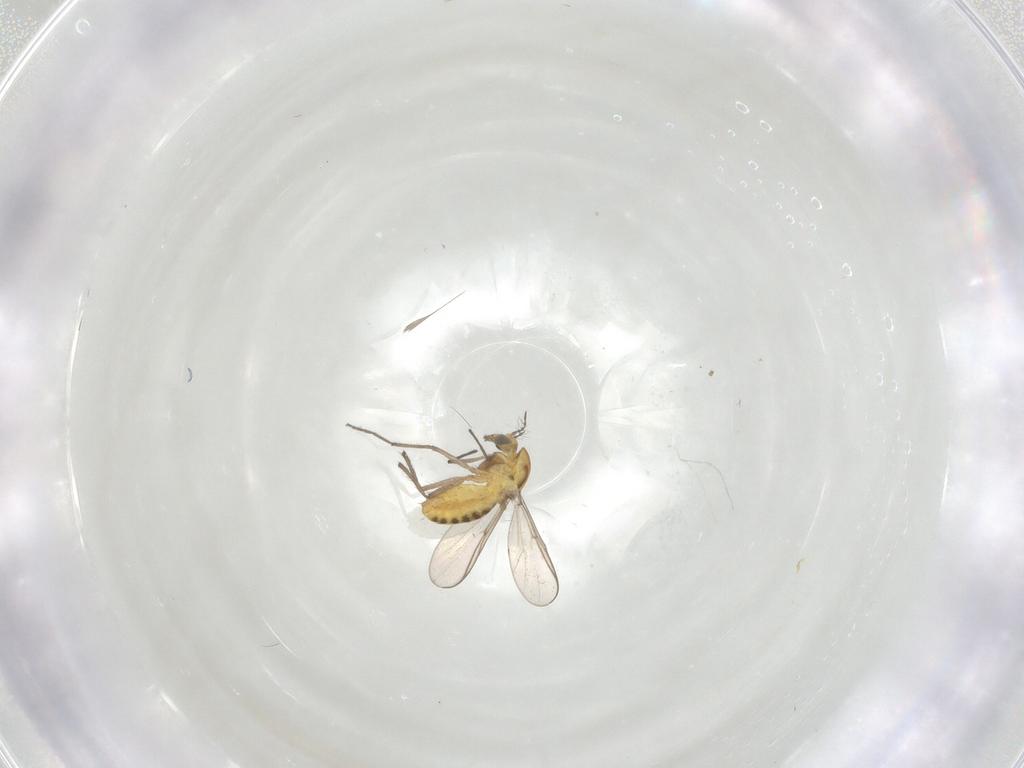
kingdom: Animalia
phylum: Arthropoda
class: Insecta
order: Diptera
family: Chironomidae
